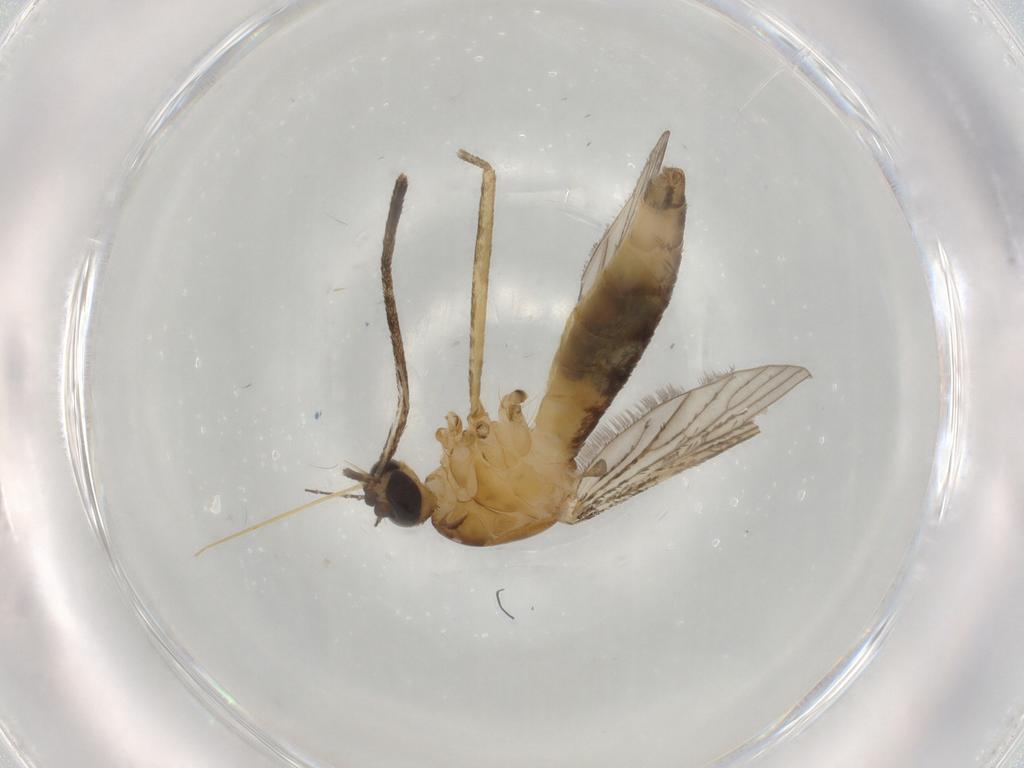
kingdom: Animalia
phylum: Arthropoda
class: Insecta
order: Diptera
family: Culicidae
